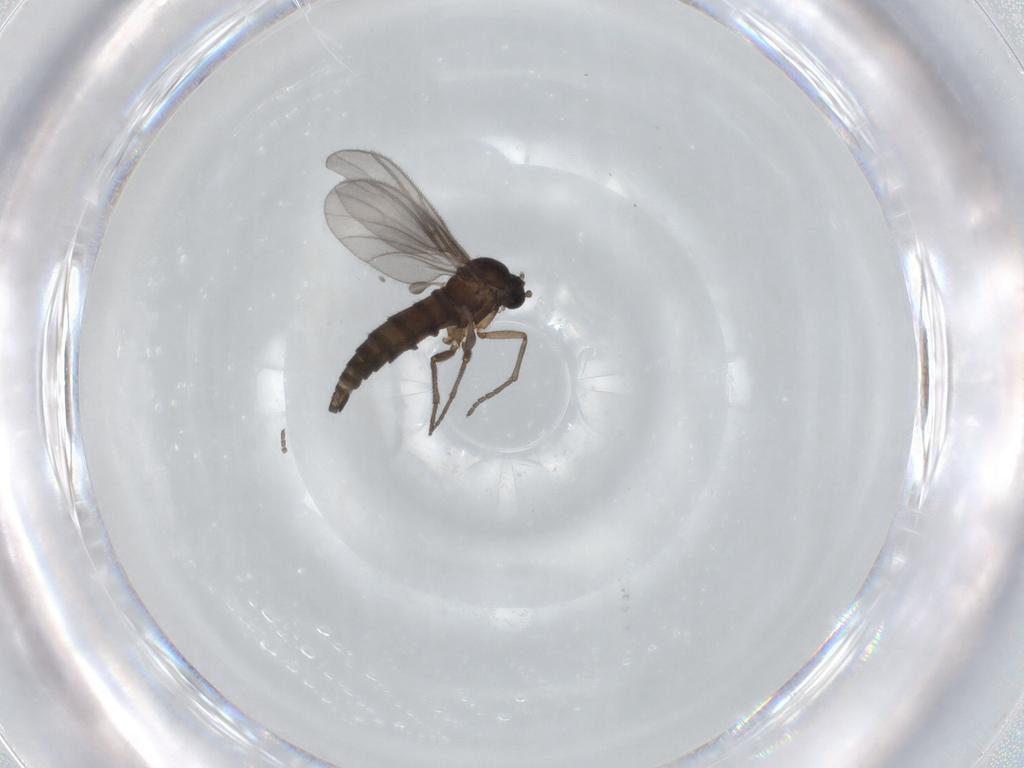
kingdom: Animalia
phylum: Arthropoda
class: Insecta
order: Diptera
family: Sciaridae
